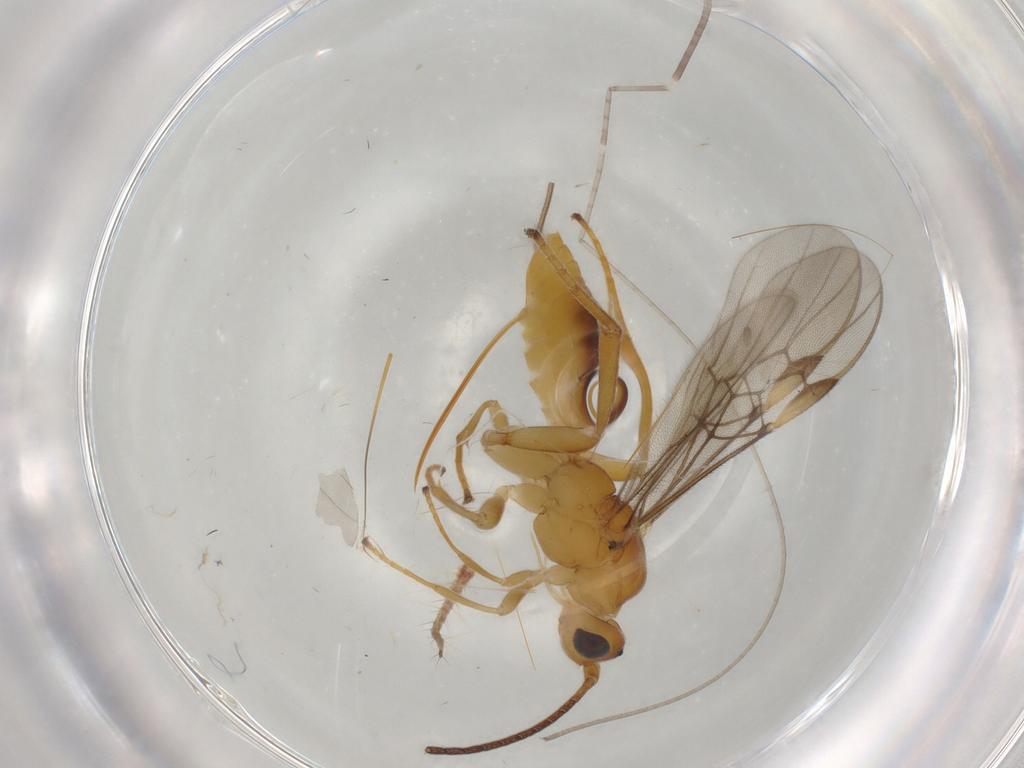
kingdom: Animalia
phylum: Arthropoda
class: Insecta
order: Hymenoptera
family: Braconidae
